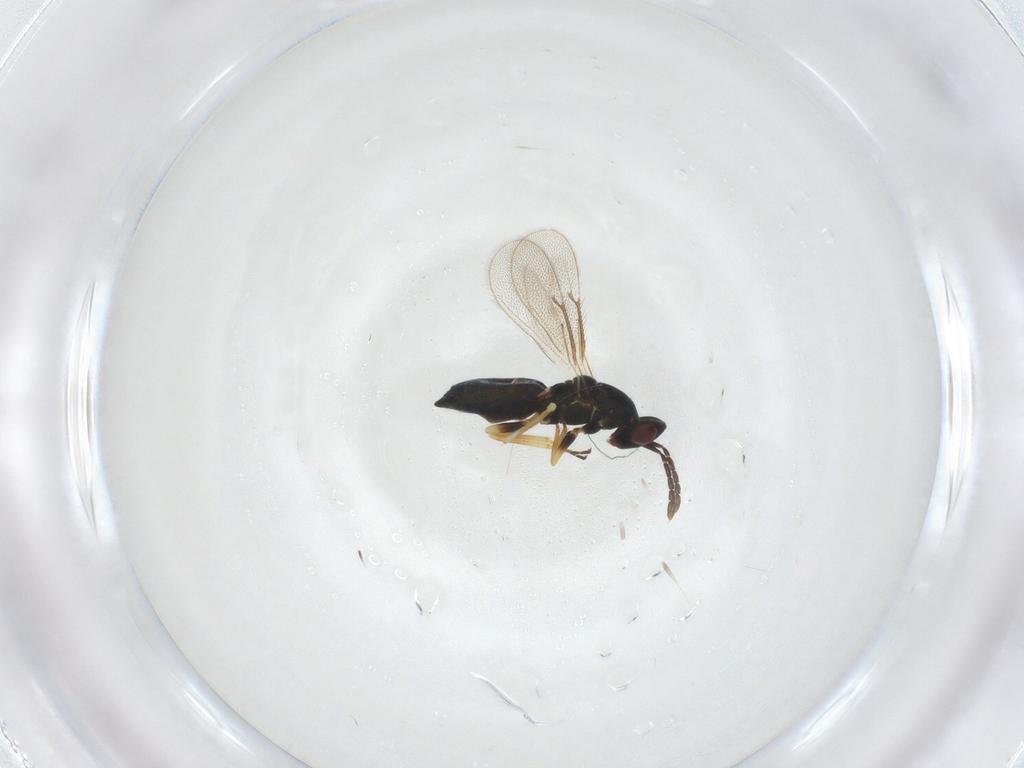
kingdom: Animalia
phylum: Arthropoda
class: Insecta
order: Hymenoptera
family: Eulophidae
